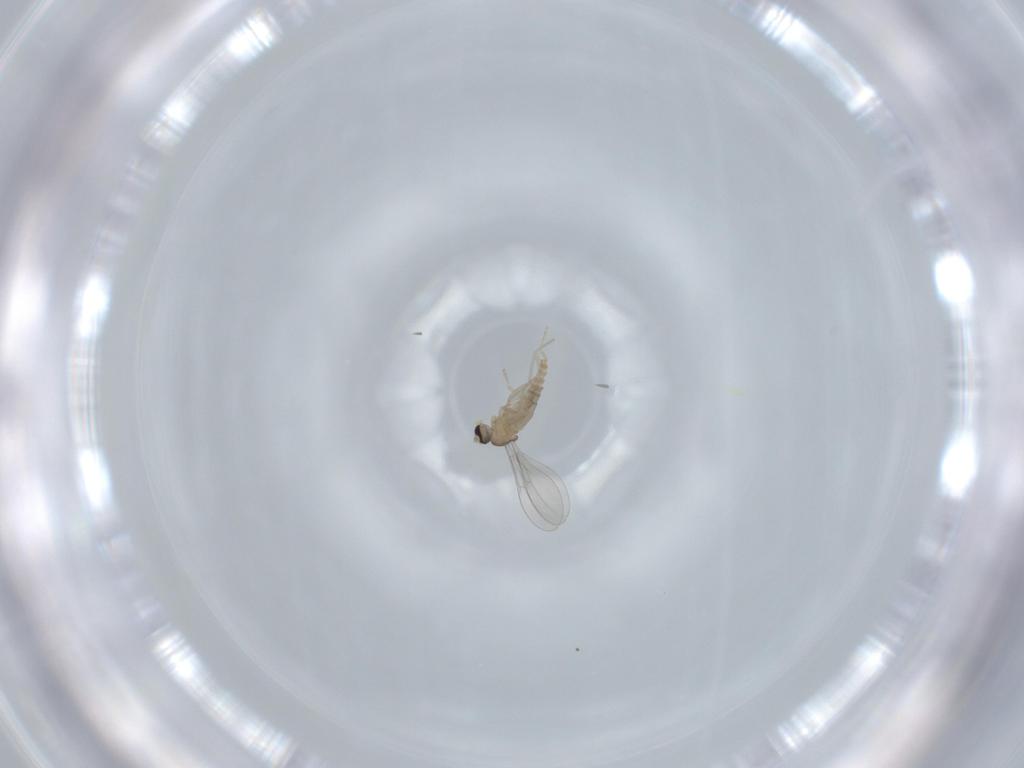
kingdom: Animalia
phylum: Arthropoda
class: Insecta
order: Diptera
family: Cecidomyiidae
